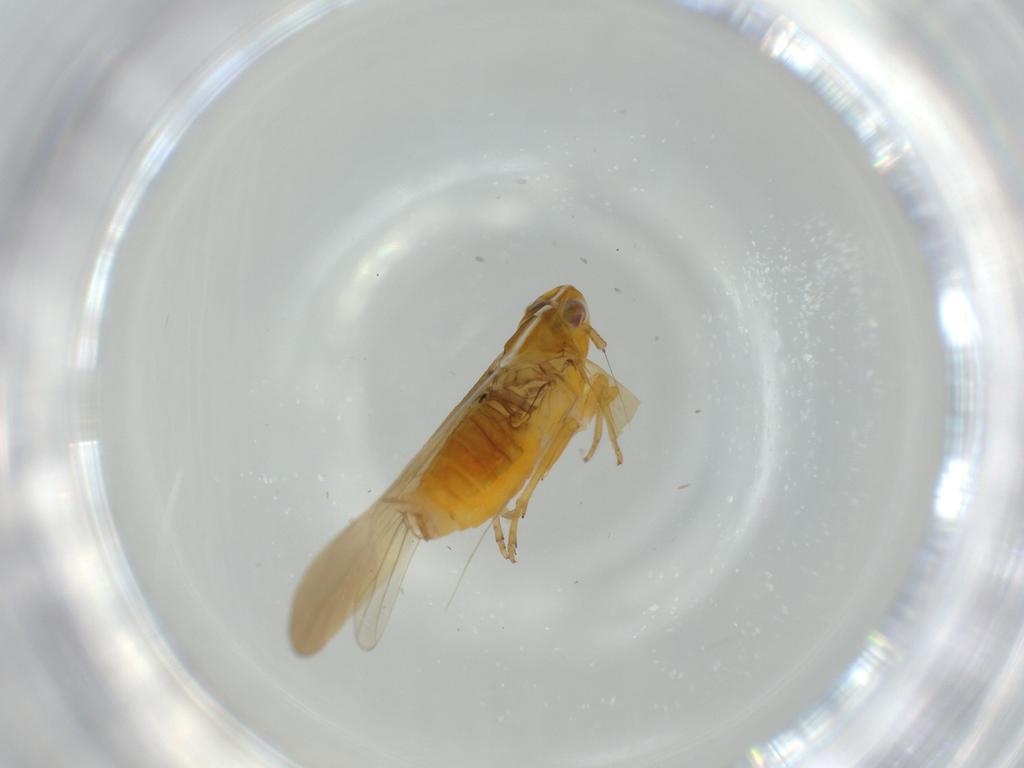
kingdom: Animalia
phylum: Arthropoda
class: Insecta
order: Hemiptera
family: Delphacidae
